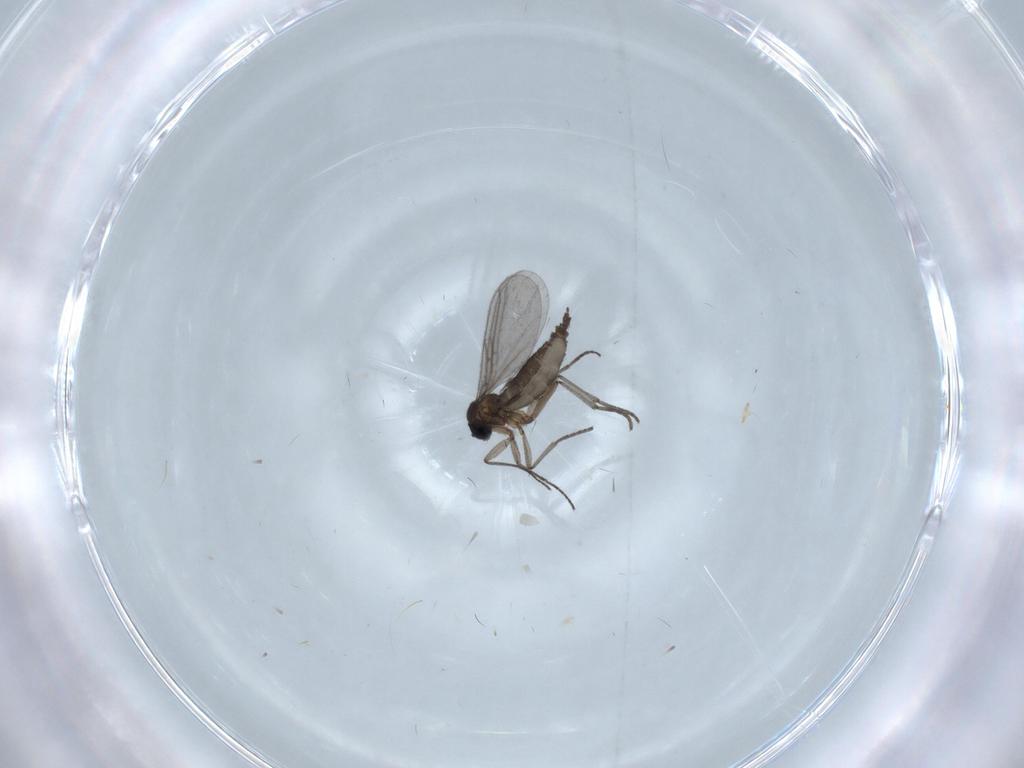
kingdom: Animalia
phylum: Arthropoda
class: Insecta
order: Diptera
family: Chironomidae
